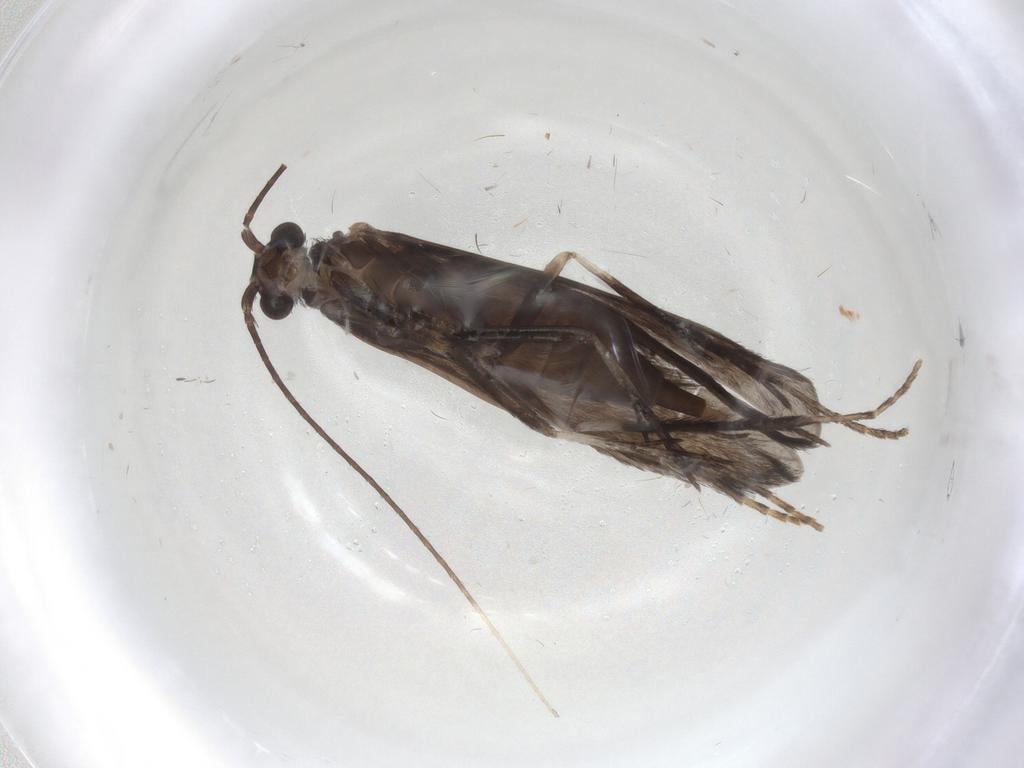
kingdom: Animalia
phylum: Arthropoda
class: Insecta
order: Trichoptera
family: Xiphocentronidae
